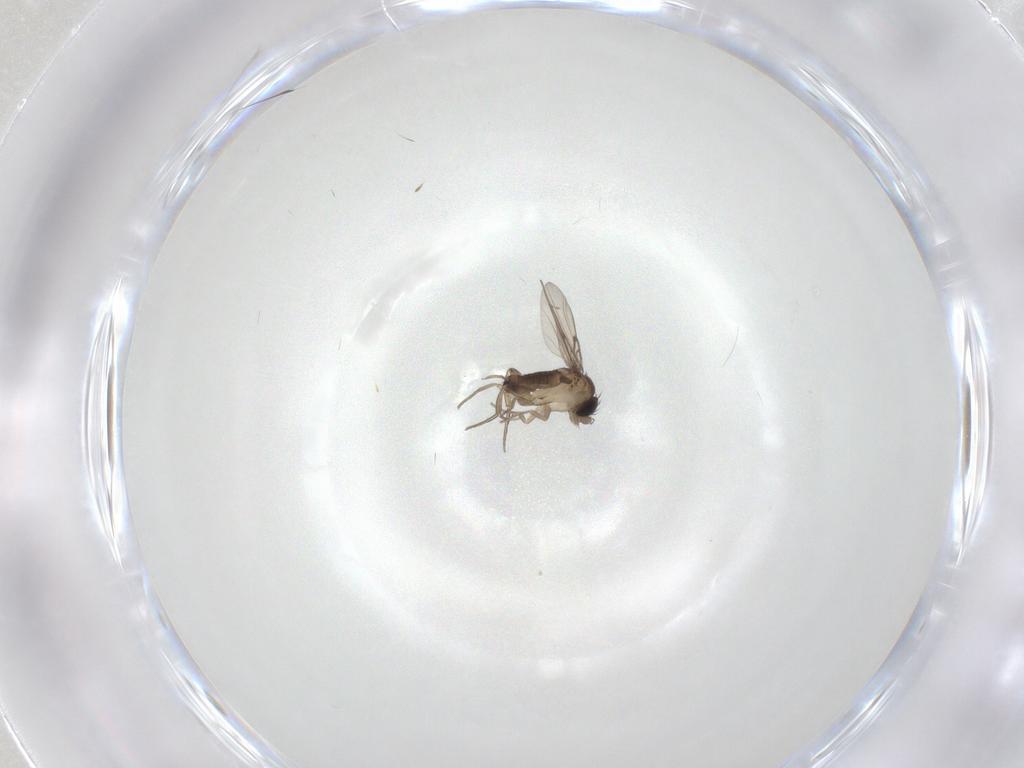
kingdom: Animalia
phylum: Arthropoda
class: Insecta
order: Diptera
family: Phoridae
